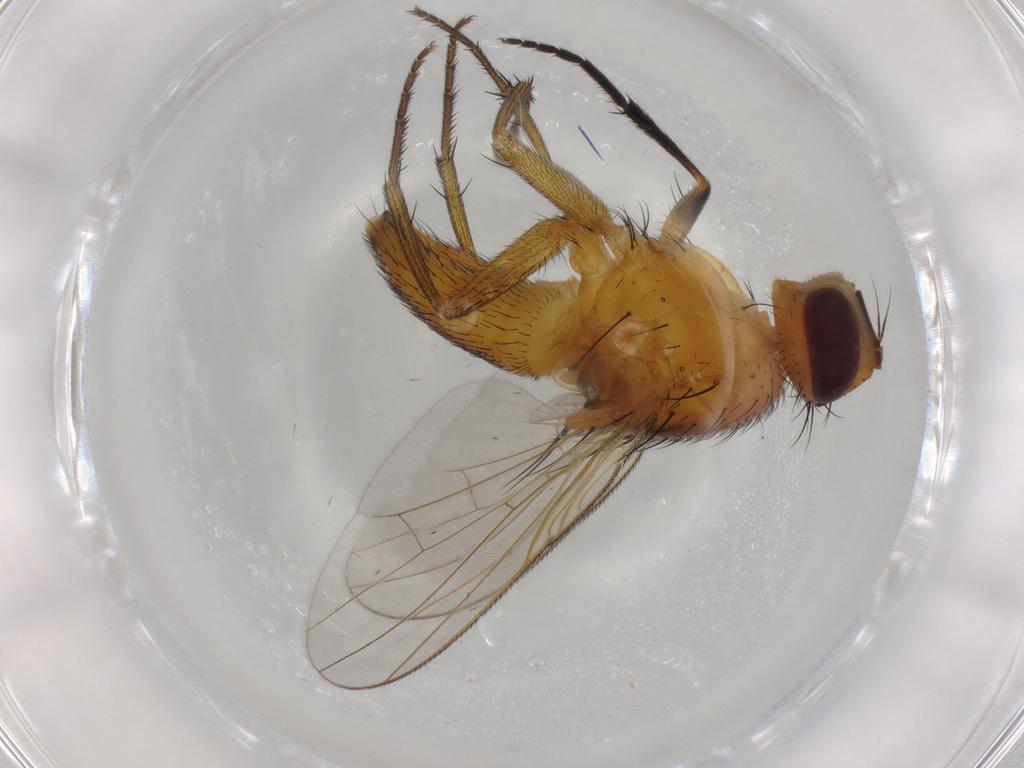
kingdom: Animalia
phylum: Arthropoda
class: Insecta
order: Diptera
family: Muscidae
